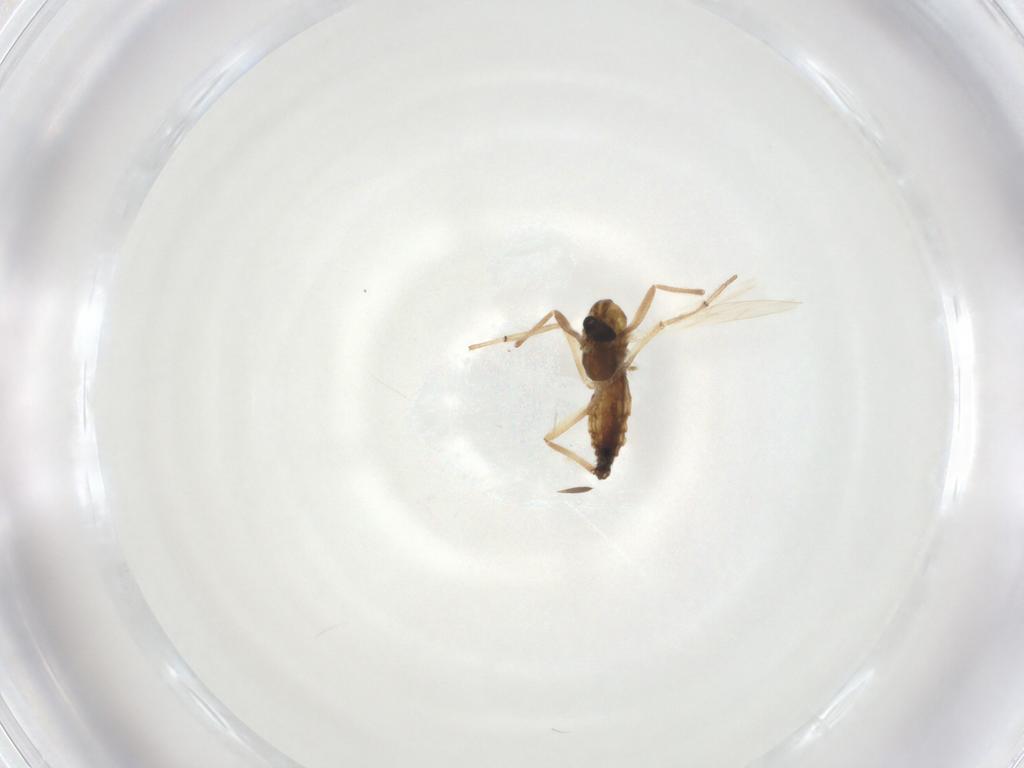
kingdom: Animalia
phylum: Arthropoda
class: Insecta
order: Diptera
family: Chironomidae
